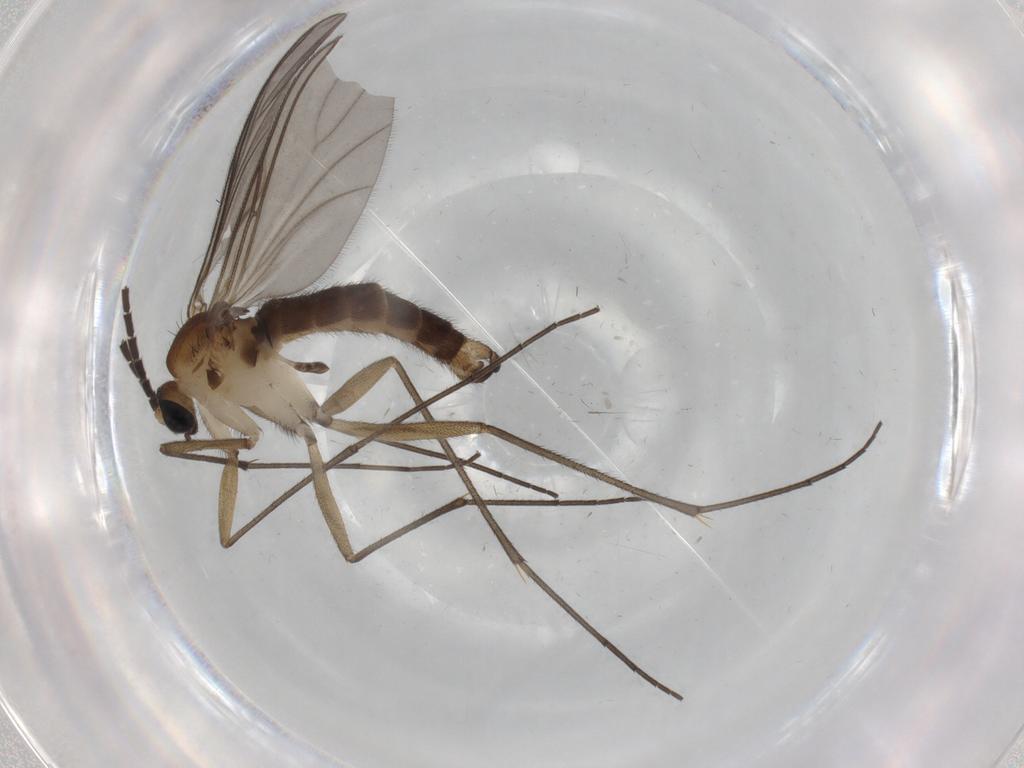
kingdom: Animalia
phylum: Arthropoda
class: Insecta
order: Diptera
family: Sciaridae
